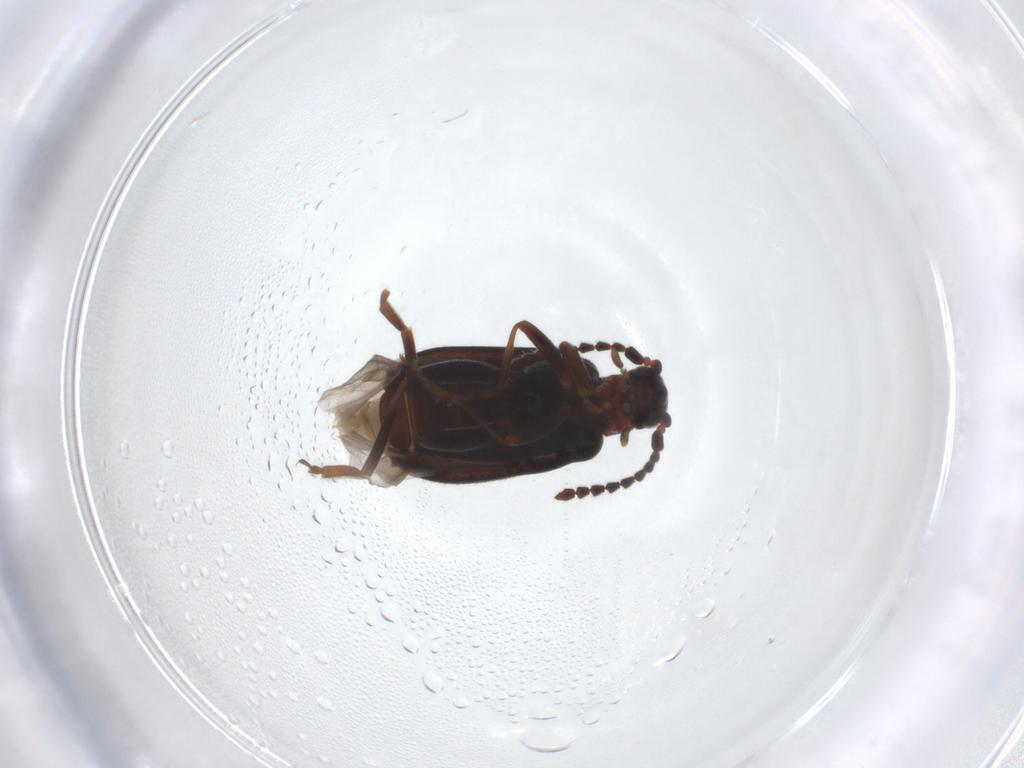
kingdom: Animalia
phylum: Arthropoda
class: Insecta
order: Coleoptera
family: Aderidae
